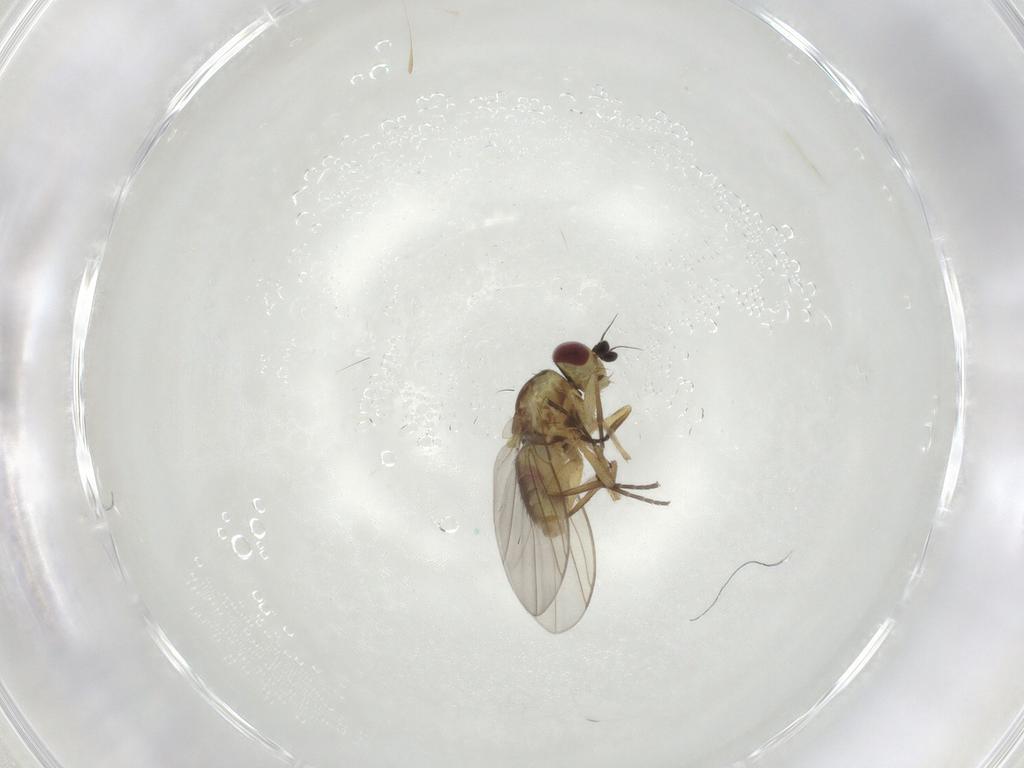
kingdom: Animalia
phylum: Arthropoda
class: Insecta
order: Diptera
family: Chironomidae
